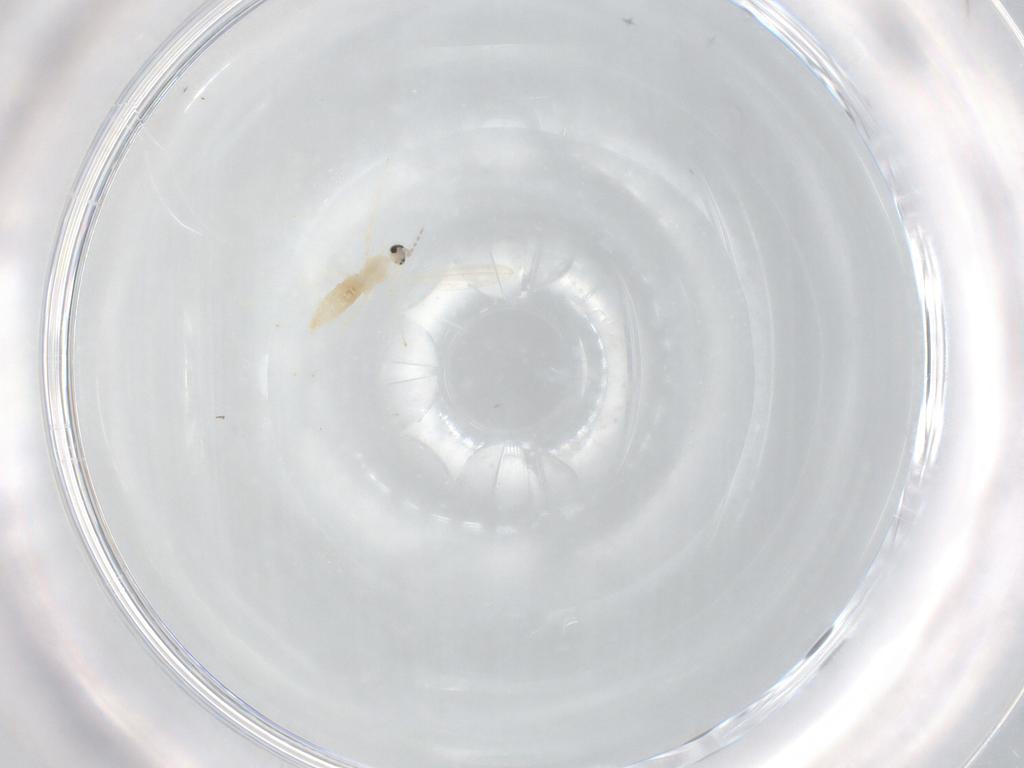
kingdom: Animalia
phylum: Arthropoda
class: Insecta
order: Diptera
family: Cecidomyiidae
